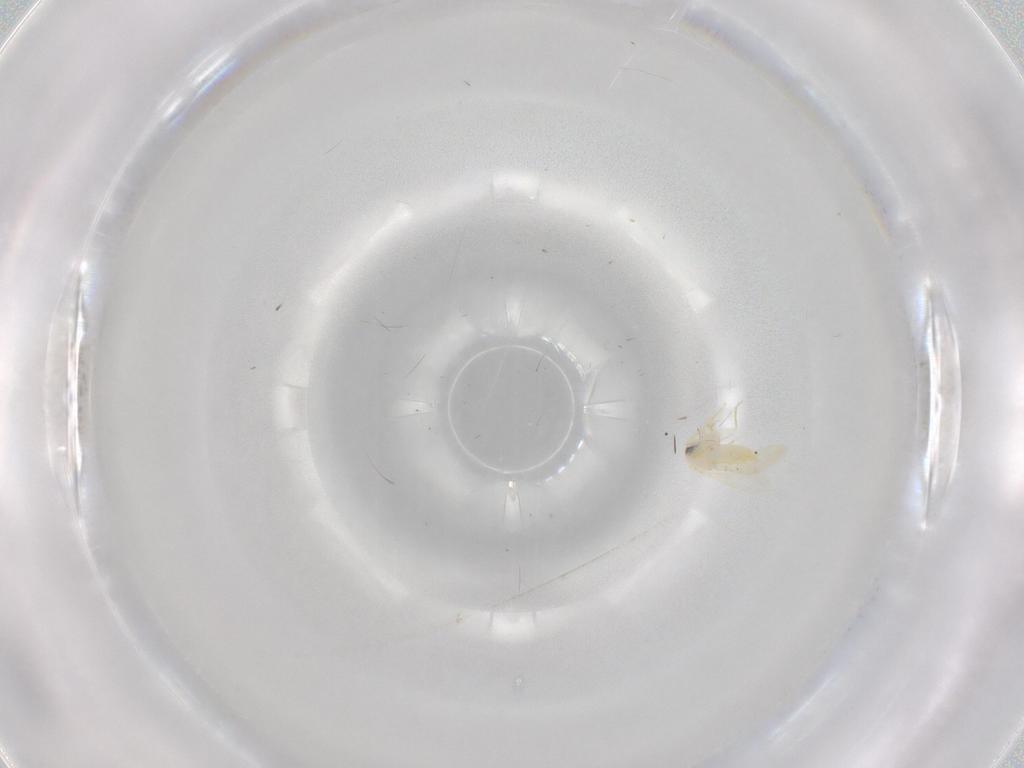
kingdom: Animalia
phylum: Arthropoda
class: Insecta
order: Hemiptera
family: Aleyrodidae
